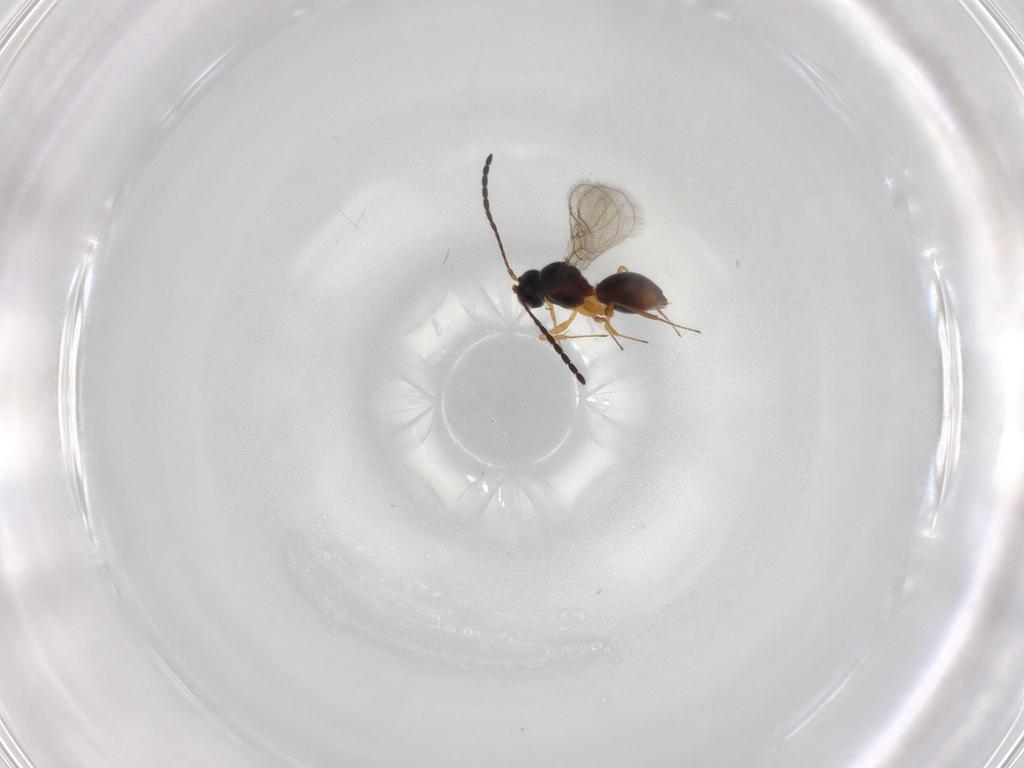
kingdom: Animalia
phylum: Arthropoda
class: Insecta
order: Hymenoptera
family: Figitidae
